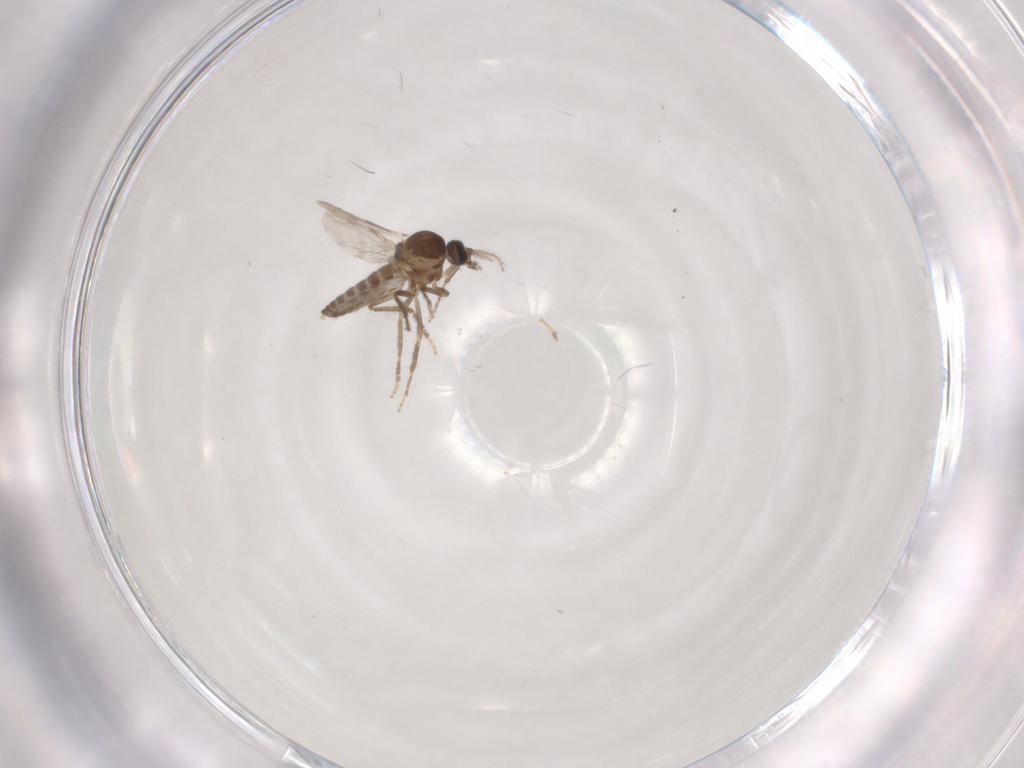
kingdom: Animalia
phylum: Arthropoda
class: Insecta
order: Diptera
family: Ceratopogonidae
